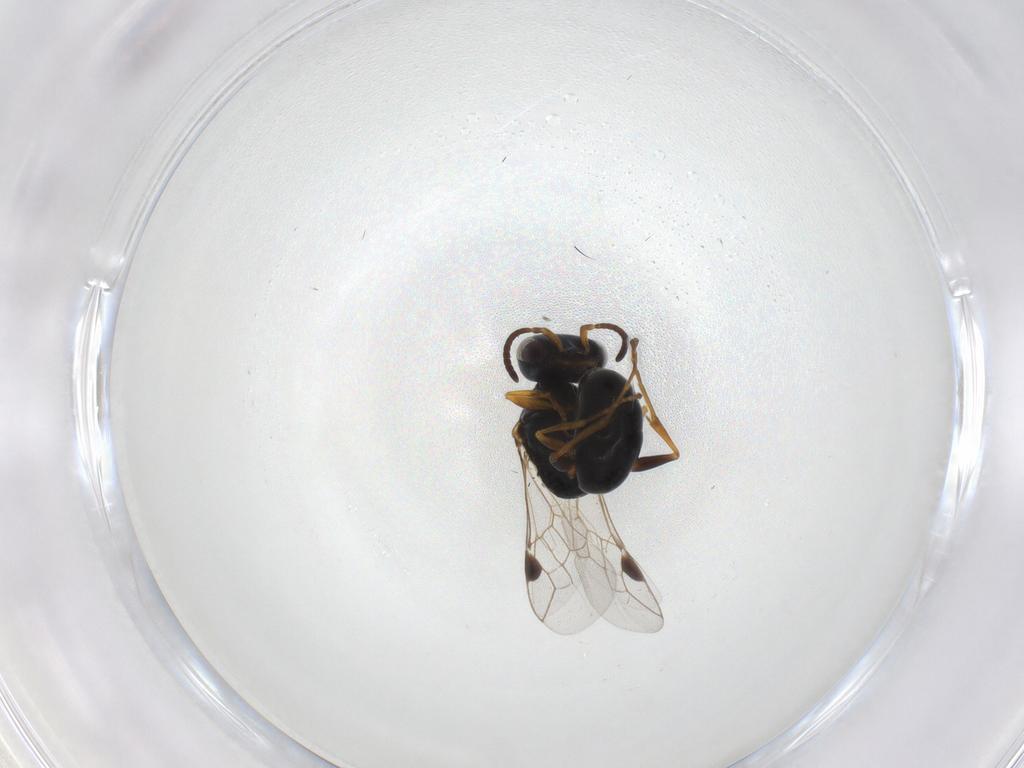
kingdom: Animalia
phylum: Arthropoda
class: Insecta
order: Hymenoptera
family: Pemphredonidae
